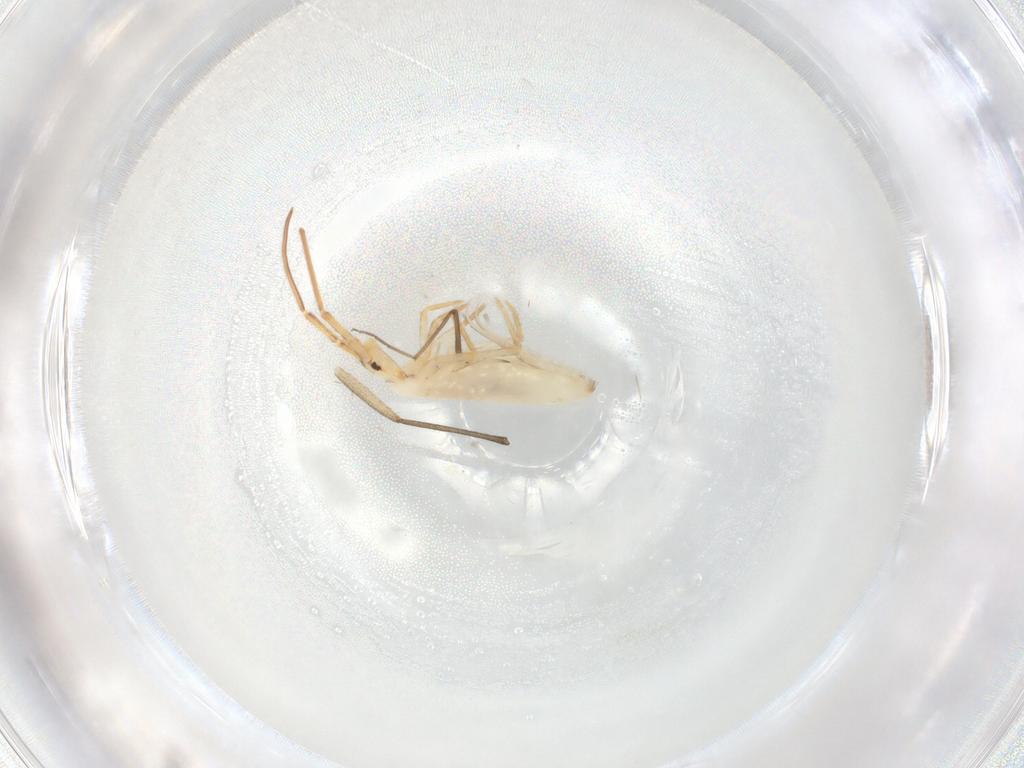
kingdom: Animalia
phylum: Arthropoda
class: Collembola
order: Entomobryomorpha
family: Entomobryidae
